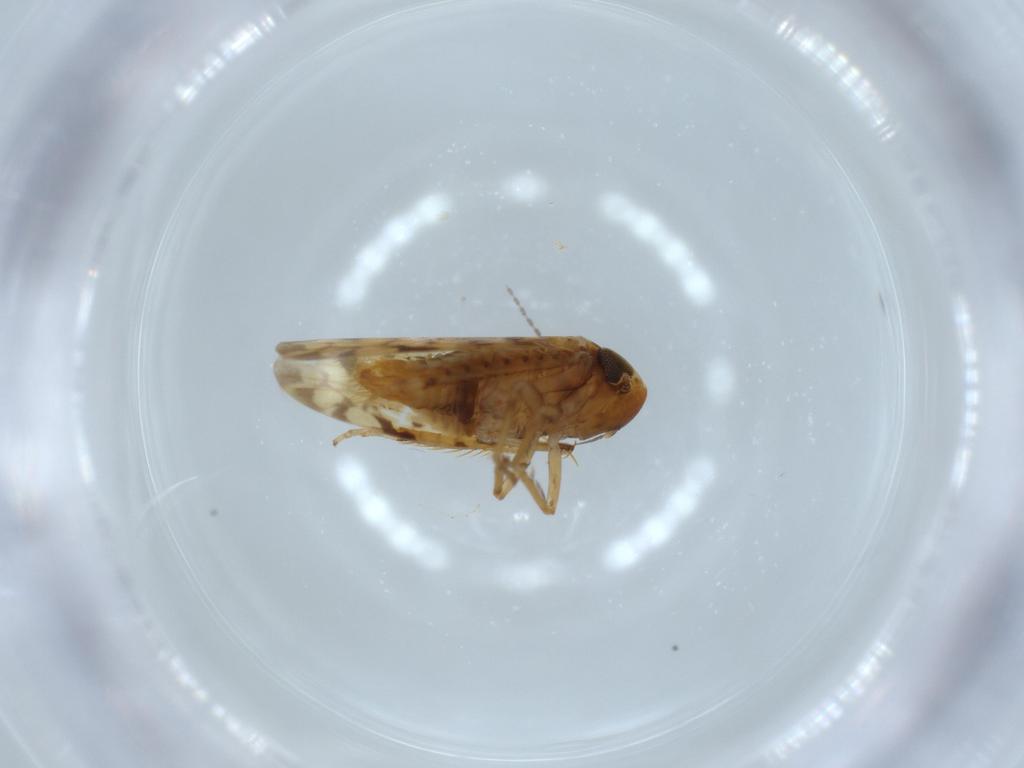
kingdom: Animalia
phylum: Arthropoda
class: Insecta
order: Hemiptera
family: Cicadellidae
